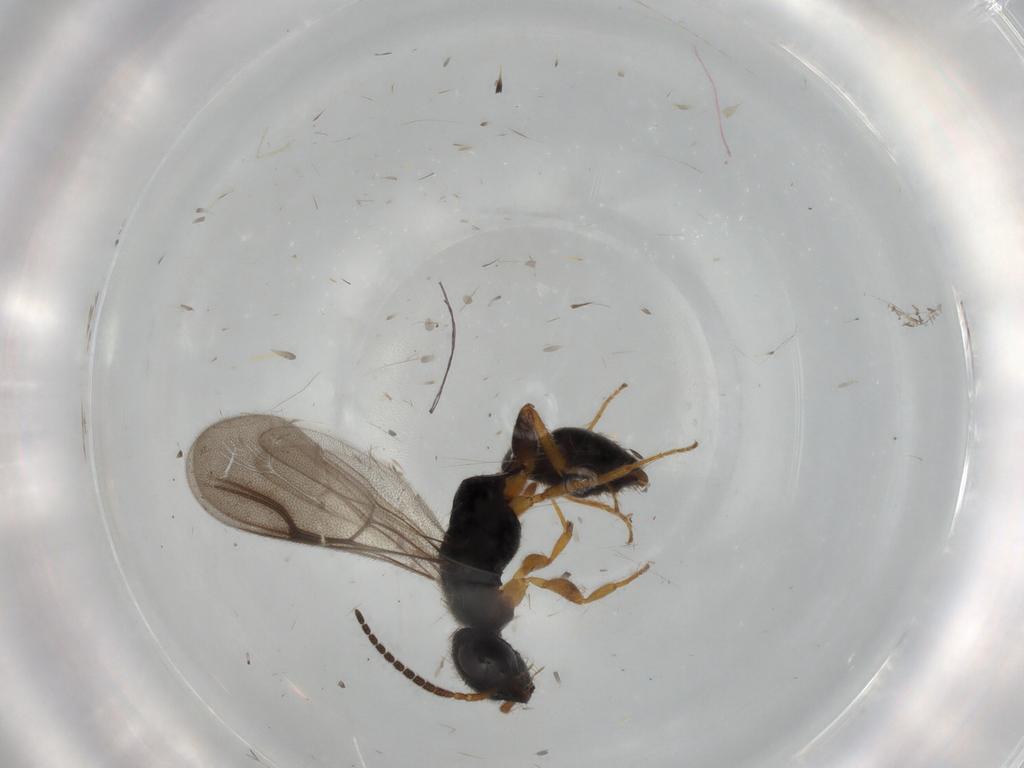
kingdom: Animalia
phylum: Arthropoda
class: Insecta
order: Hymenoptera
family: Bethylidae
